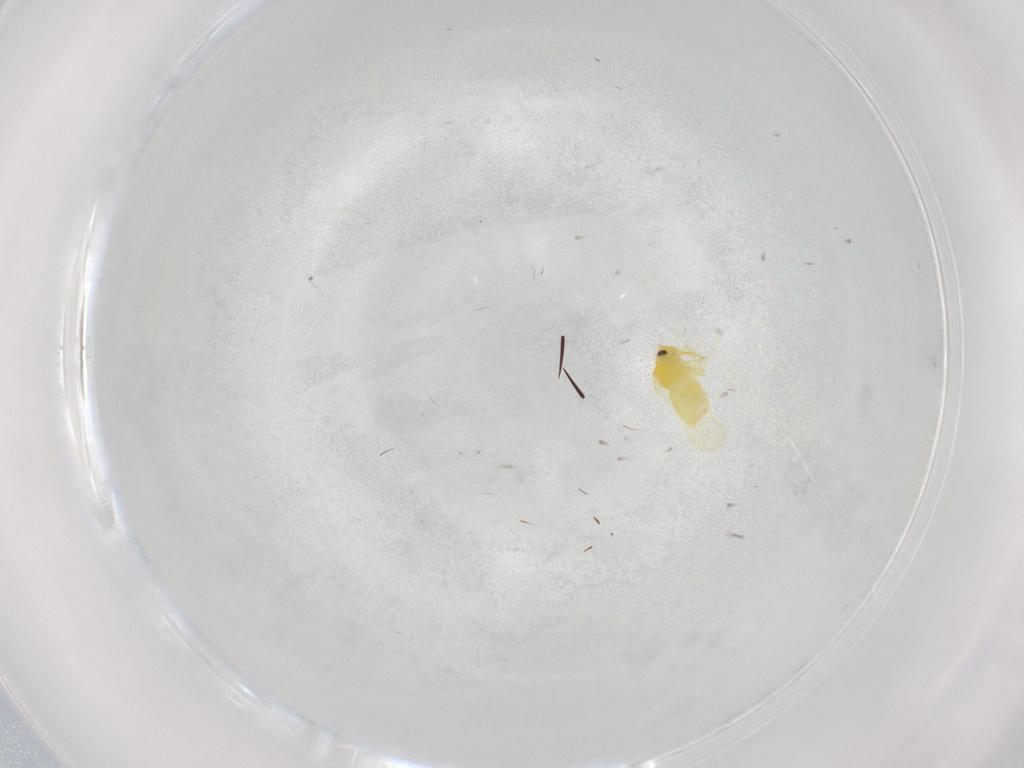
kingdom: Animalia
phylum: Arthropoda
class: Insecta
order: Hemiptera
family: Aleyrodidae
